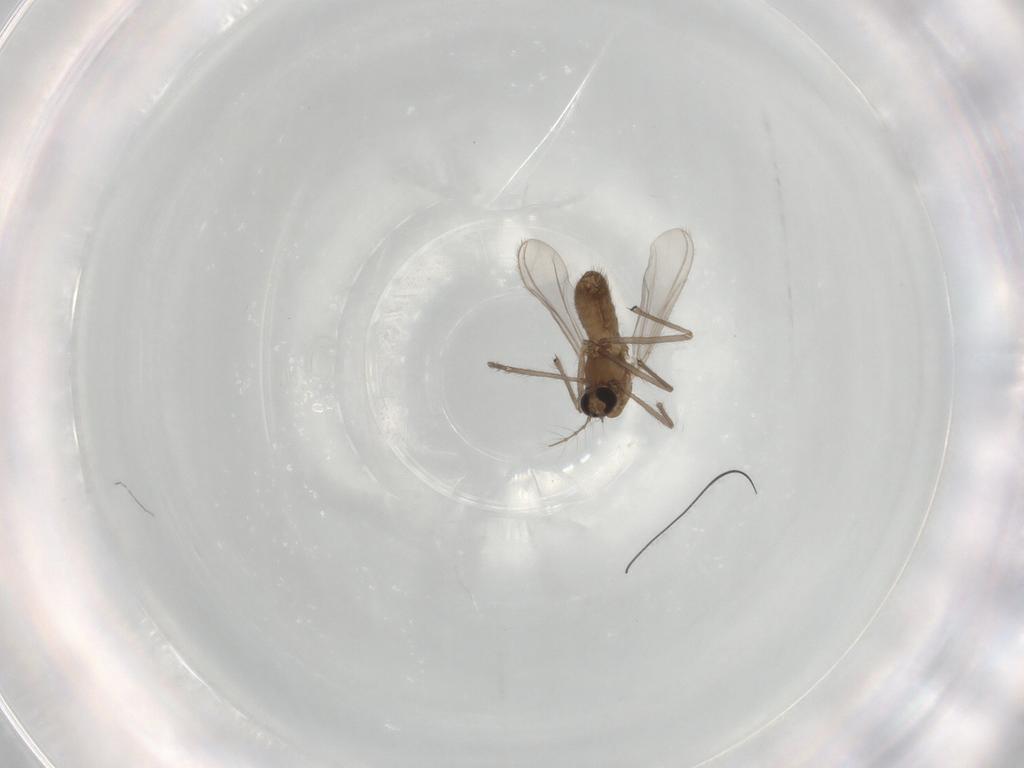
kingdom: Animalia
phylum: Arthropoda
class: Insecta
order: Diptera
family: Chironomidae
